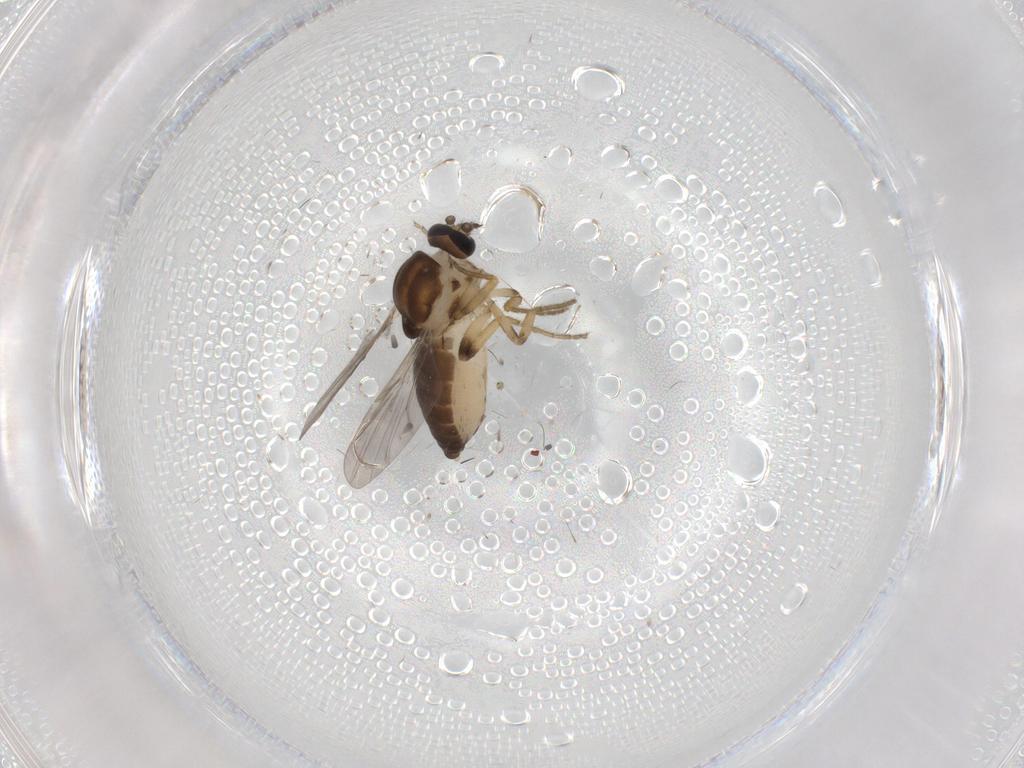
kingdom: Animalia
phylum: Arthropoda
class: Insecta
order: Diptera
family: Ceratopogonidae
